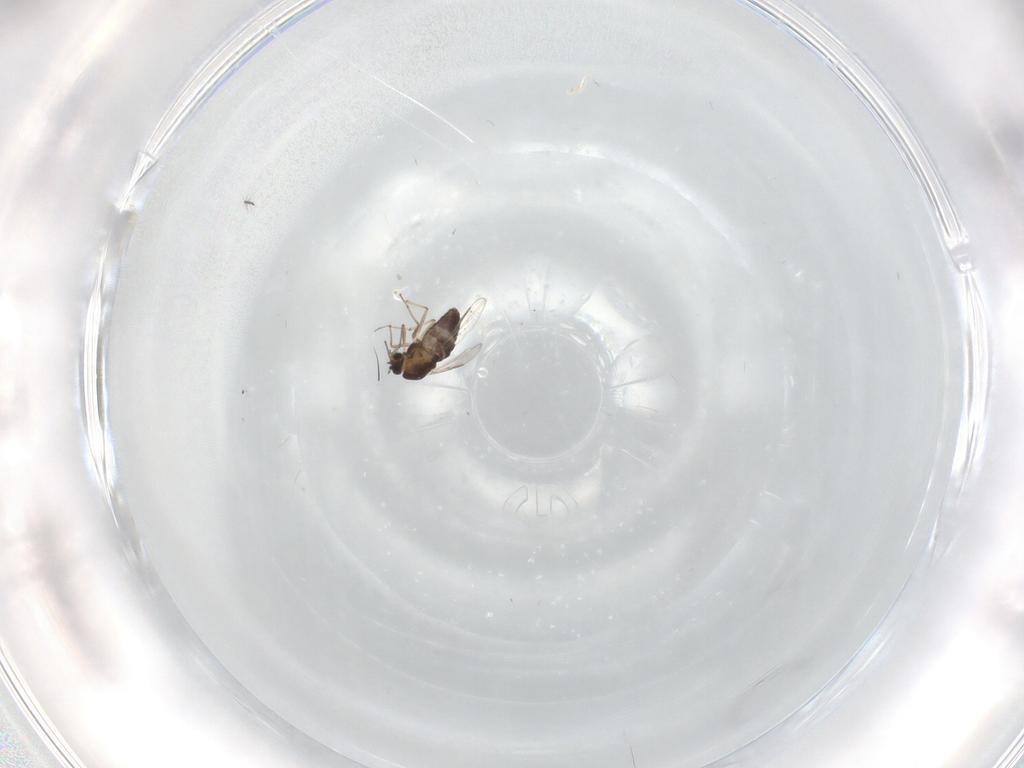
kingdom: Animalia
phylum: Arthropoda
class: Insecta
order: Diptera
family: Chironomidae
